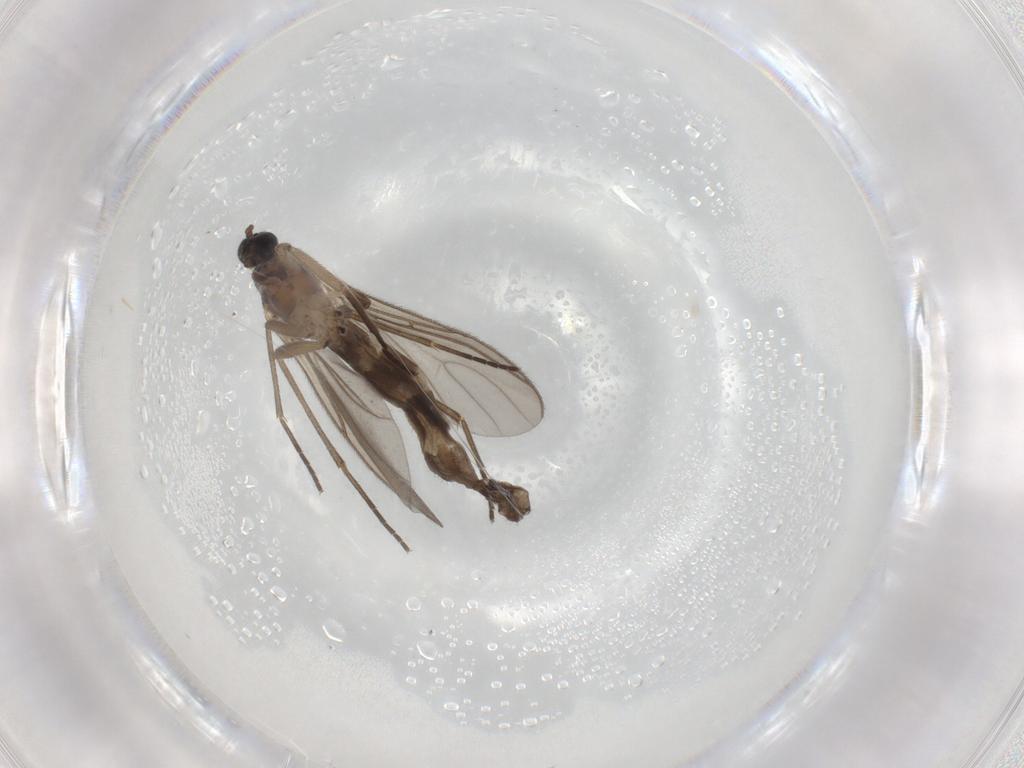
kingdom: Animalia
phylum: Arthropoda
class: Insecta
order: Diptera
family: Sciaridae
